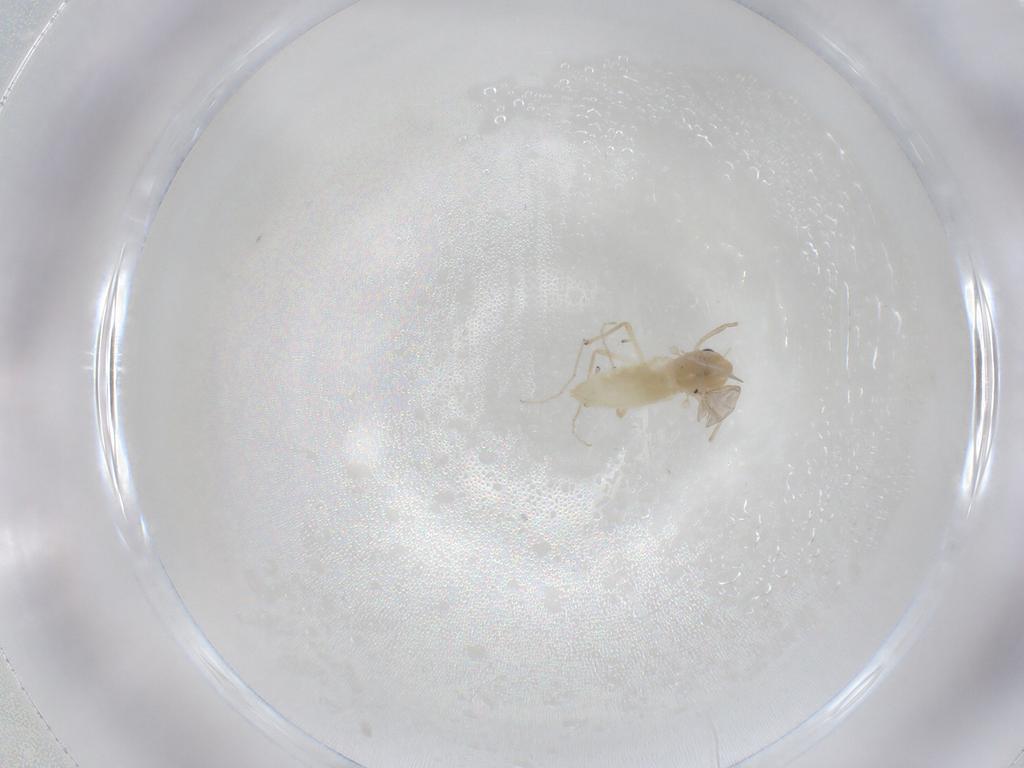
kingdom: Animalia
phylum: Arthropoda
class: Insecta
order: Diptera
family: Chironomidae
